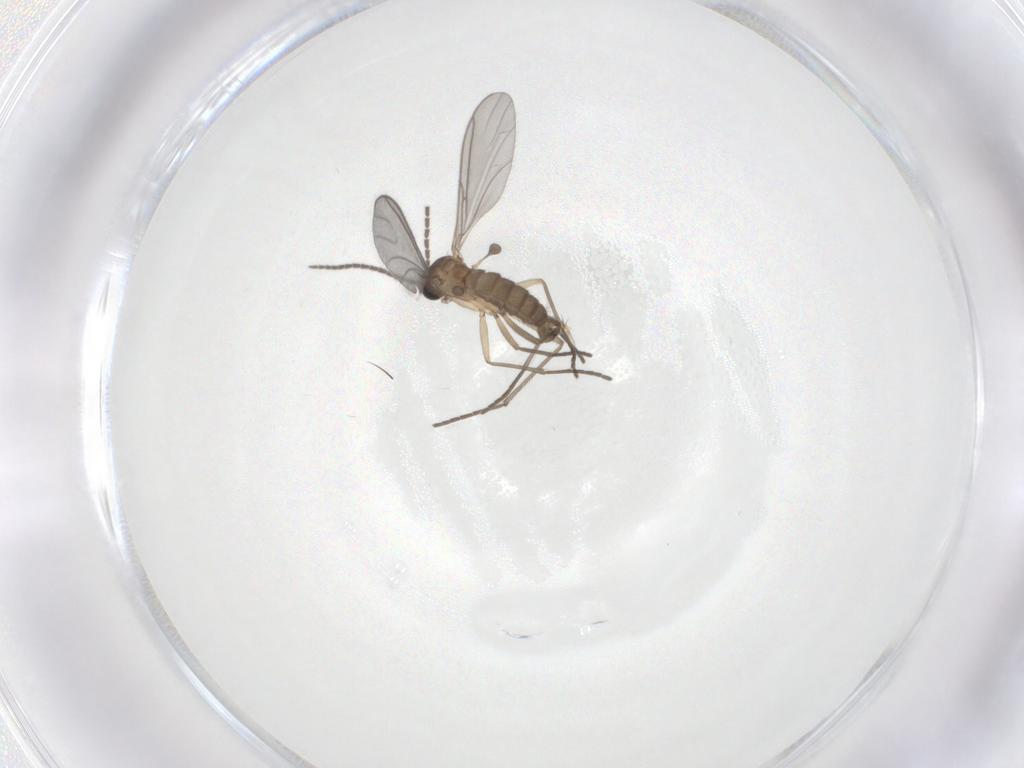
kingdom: Animalia
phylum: Arthropoda
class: Insecta
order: Diptera
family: Sciaridae
